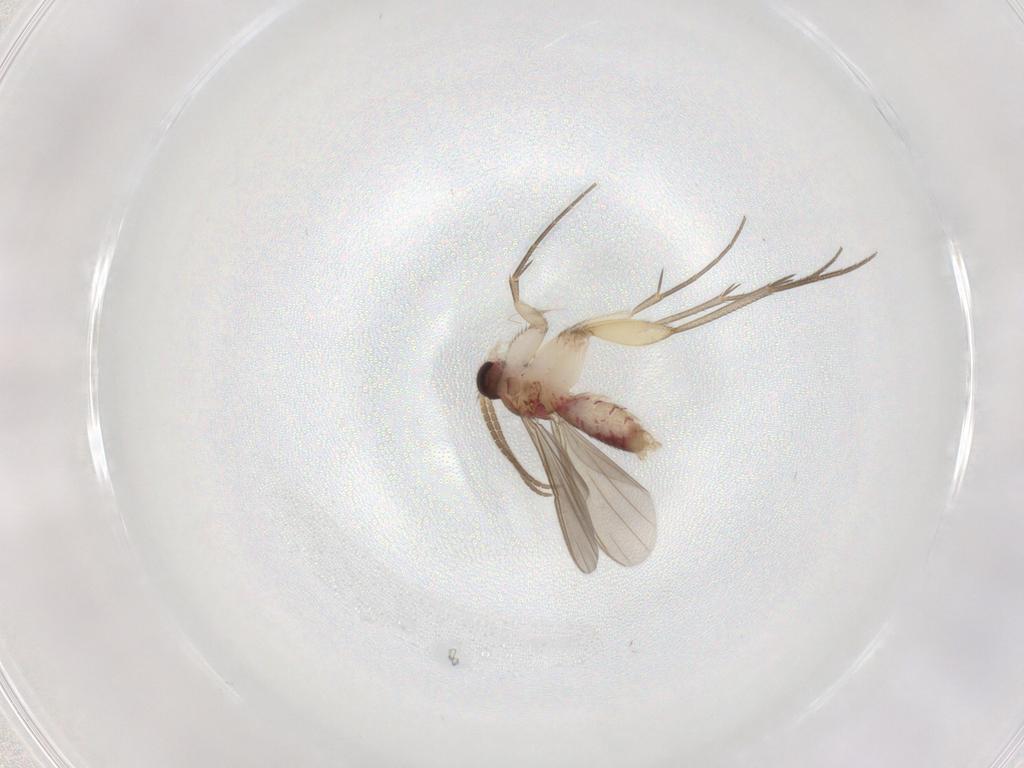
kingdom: Animalia
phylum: Arthropoda
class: Insecta
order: Diptera
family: Mycetophilidae
